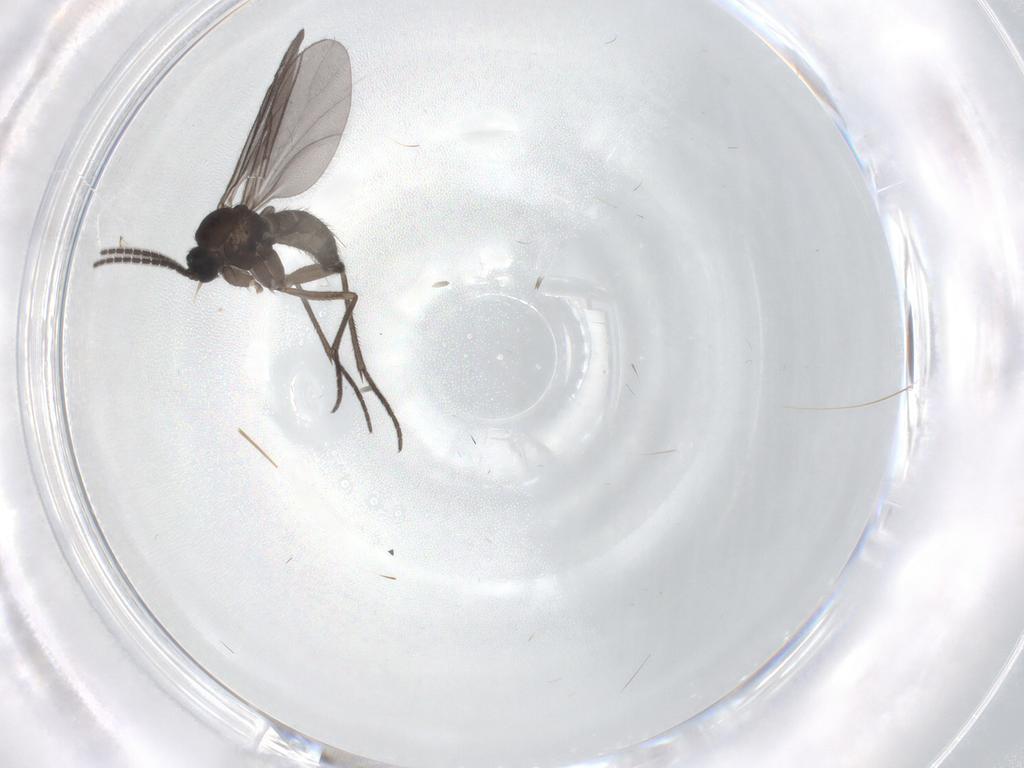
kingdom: Animalia
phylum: Arthropoda
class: Insecta
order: Diptera
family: Sciaridae
